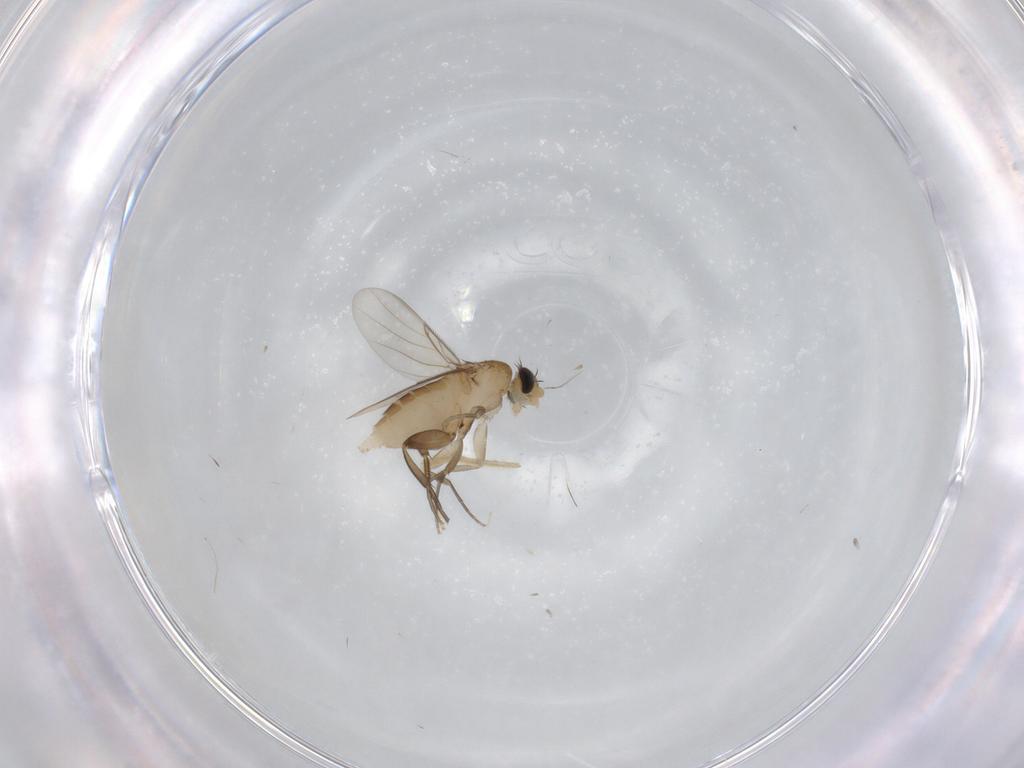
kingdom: Animalia
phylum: Arthropoda
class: Insecta
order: Diptera
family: Phoridae
